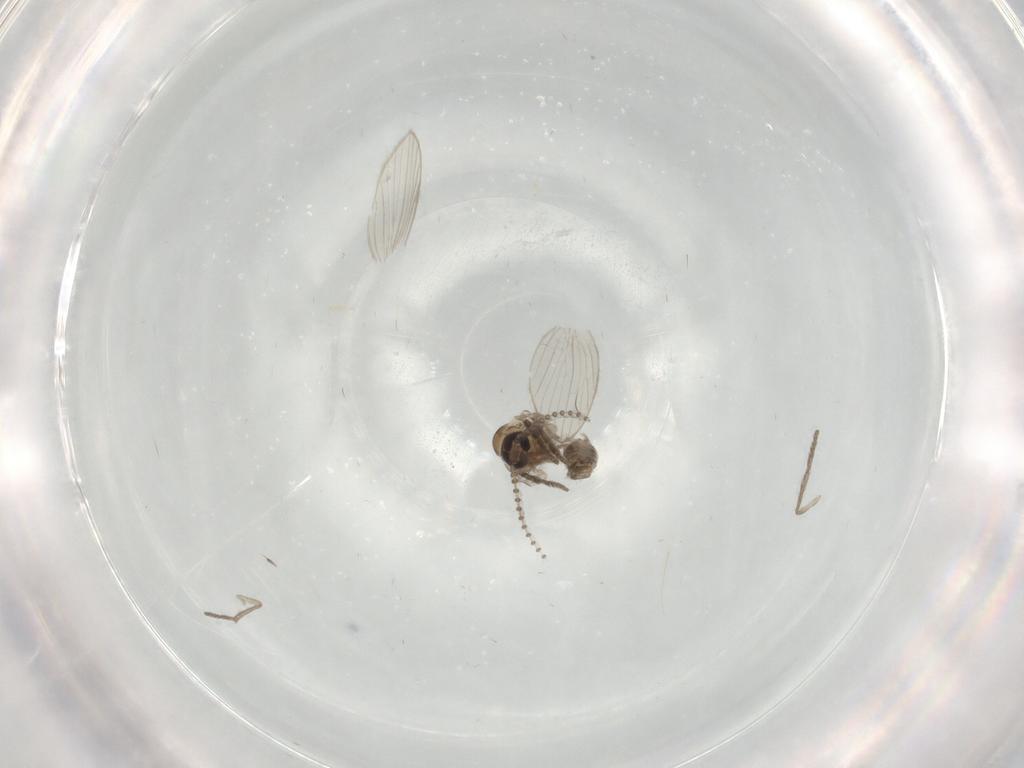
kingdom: Animalia
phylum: Arthropoda
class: Insecta
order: Diptera
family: Psychodidae
